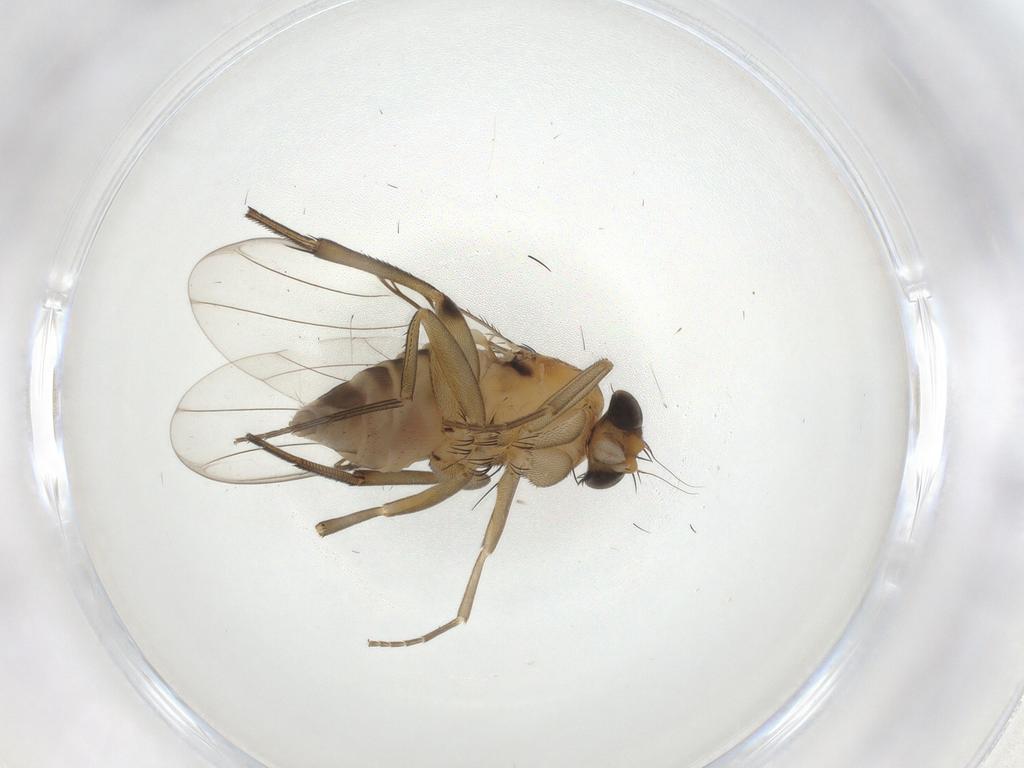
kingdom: Animalia
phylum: Arthropoda
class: Insecta
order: Diptera
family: Phoridae
